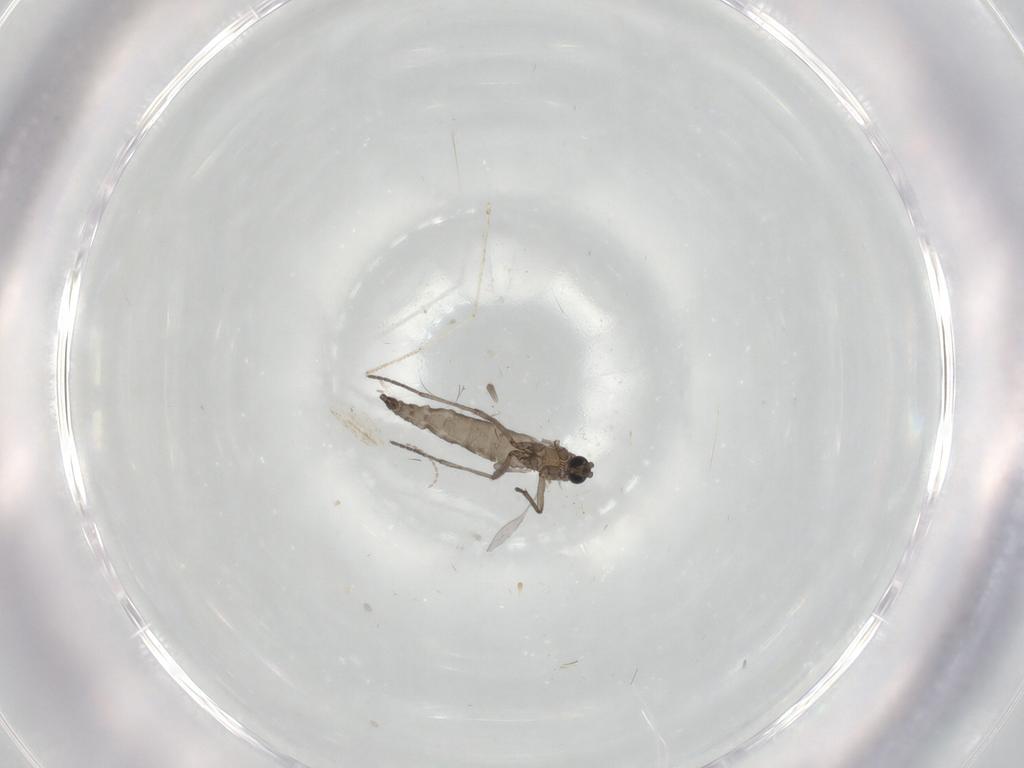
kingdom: Animalia
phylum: Arthropoda
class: Insecta
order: Diptera
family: Sciaridae
